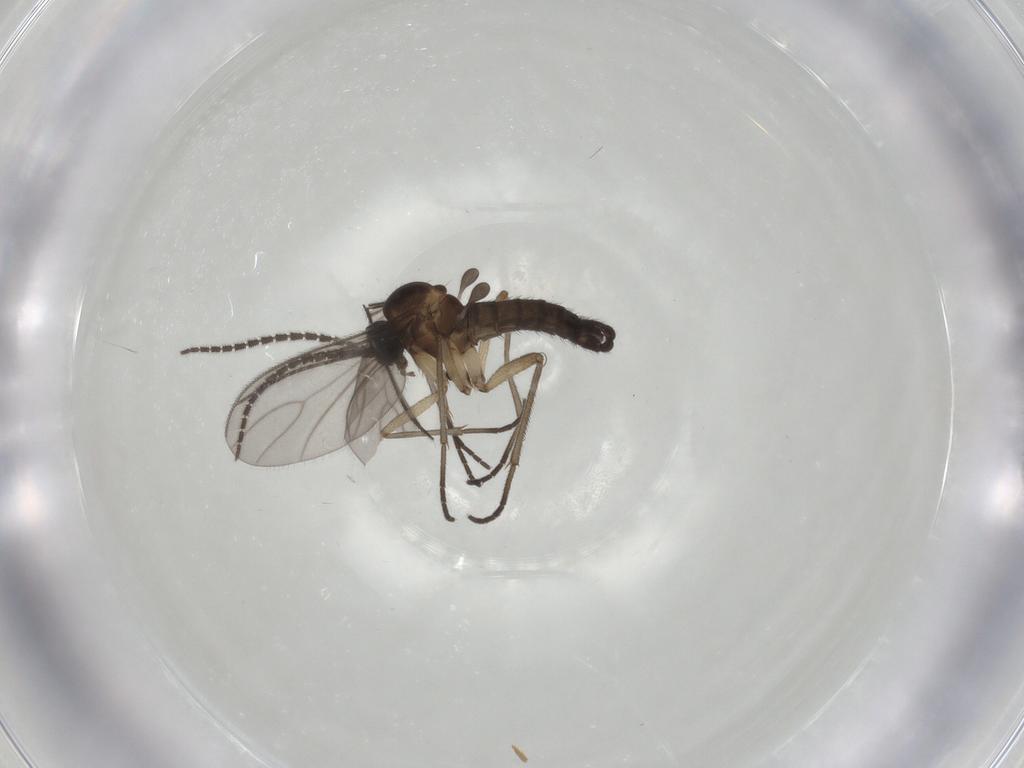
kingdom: Animalia
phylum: Arthropoda
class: Insecta
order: Diptera
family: Sciaridae
